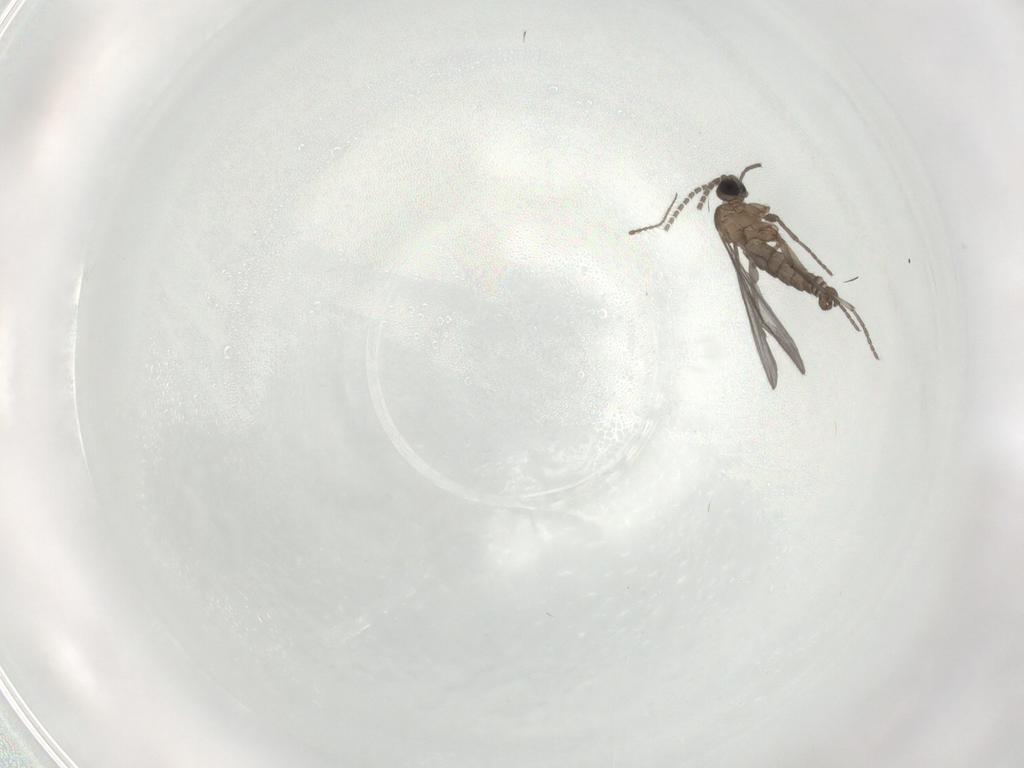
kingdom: Animalia
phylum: Arthropoda
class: Insecta
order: Diptera
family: Sciaridae
